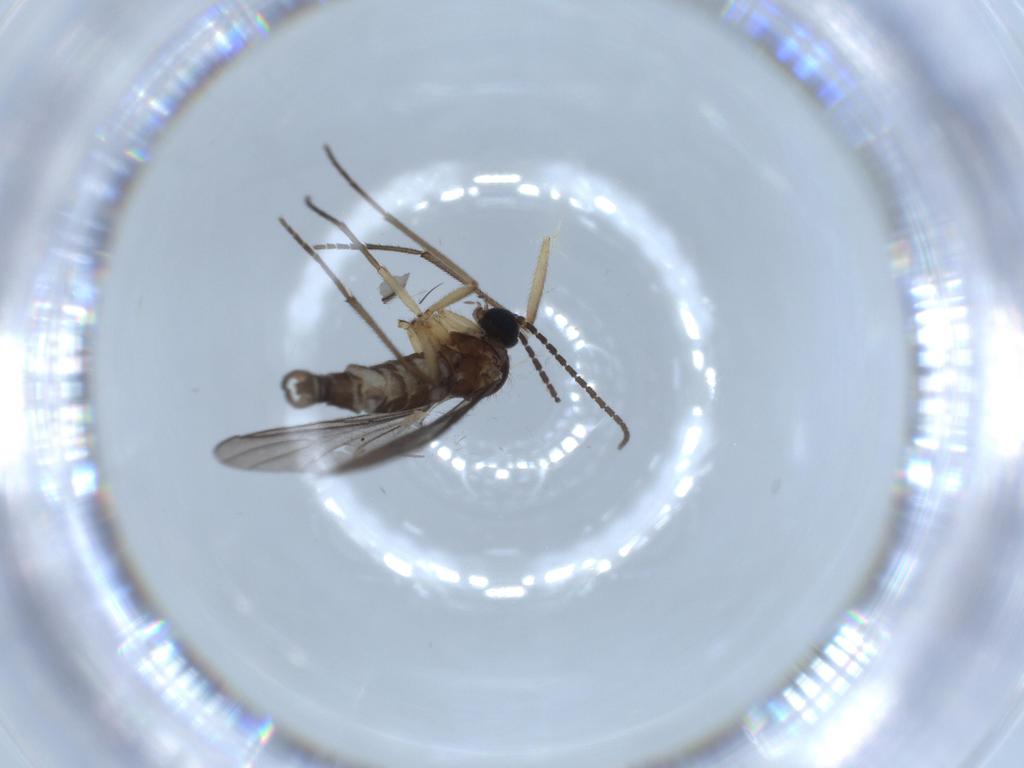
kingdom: Animalia
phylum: Arthropoda
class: Insecta
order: Diptera
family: Sciaridae
